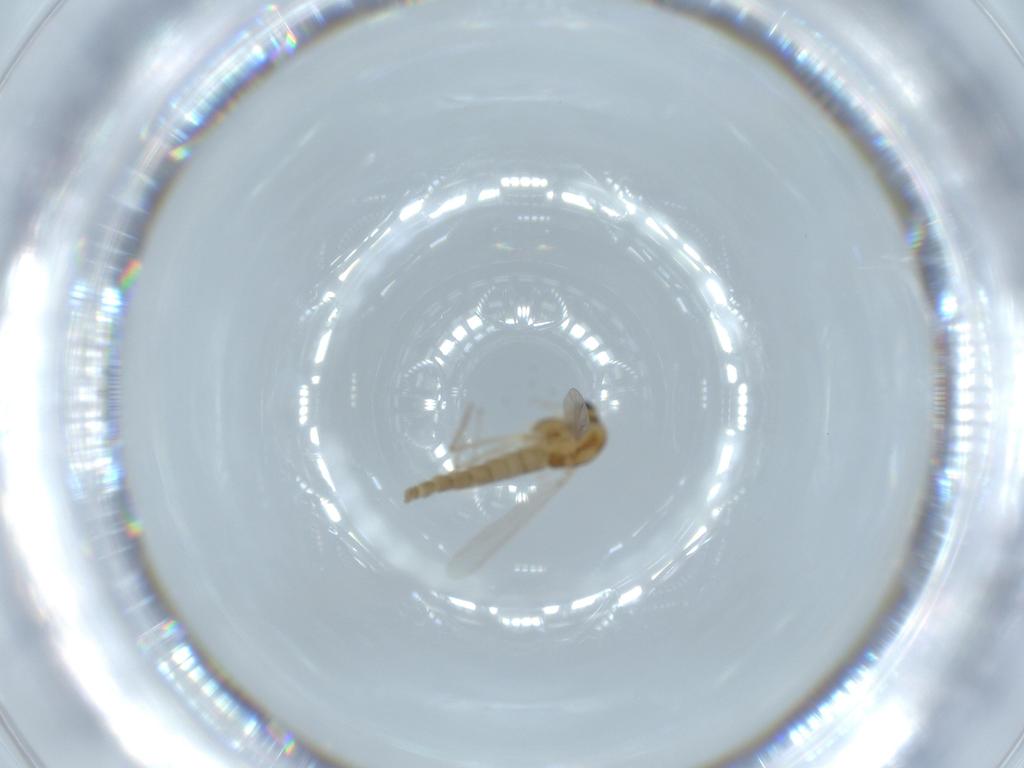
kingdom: Animalia
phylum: Arthropoda
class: Insecta
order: Diptera
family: Chironomidae
